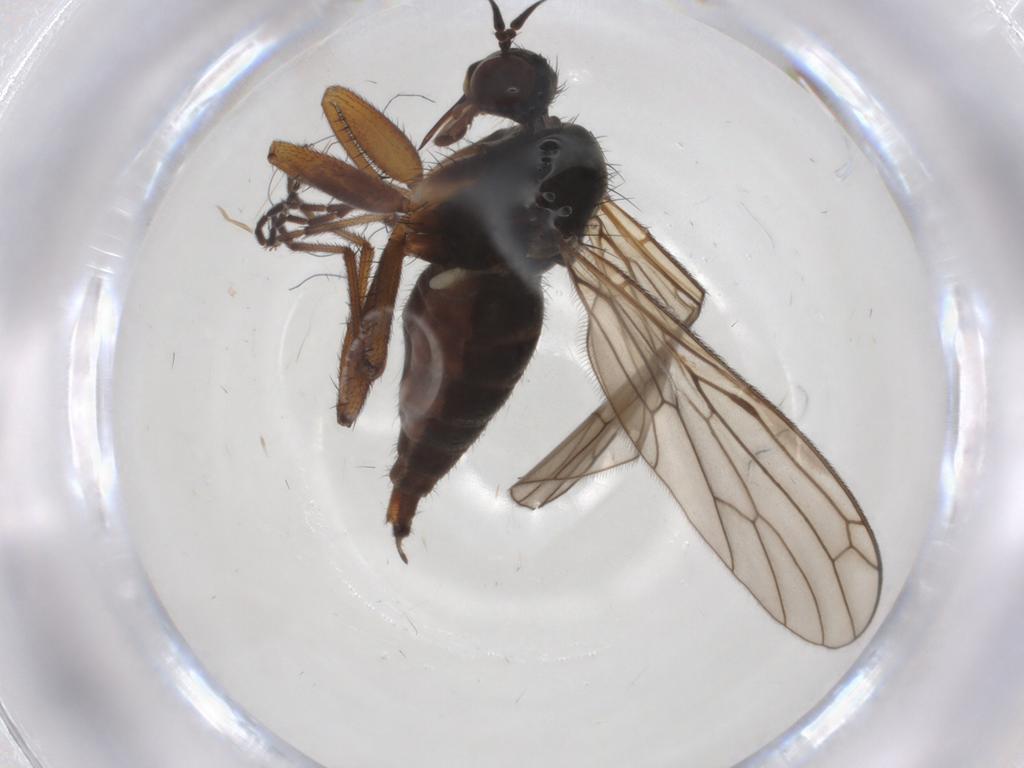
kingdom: Animalia
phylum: Arthropoda
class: Insecta
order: Diptera
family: Chironomidae
